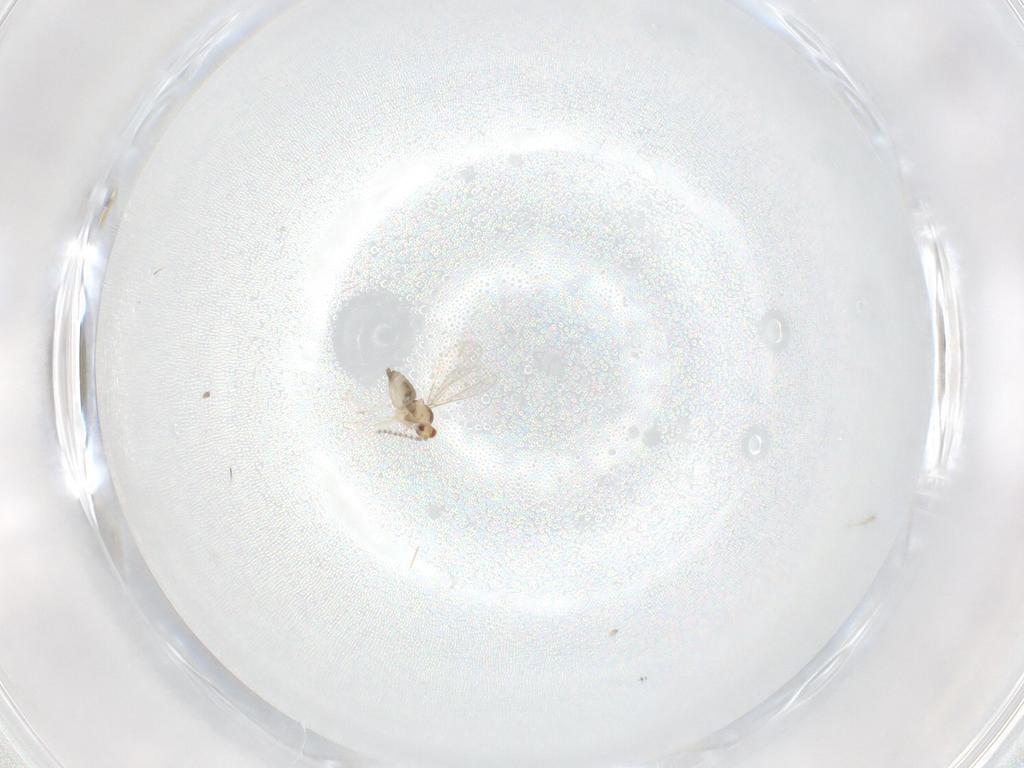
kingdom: Animalia
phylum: Arthropoda
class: Insecta
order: Diptera
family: Cecidomyiidae
